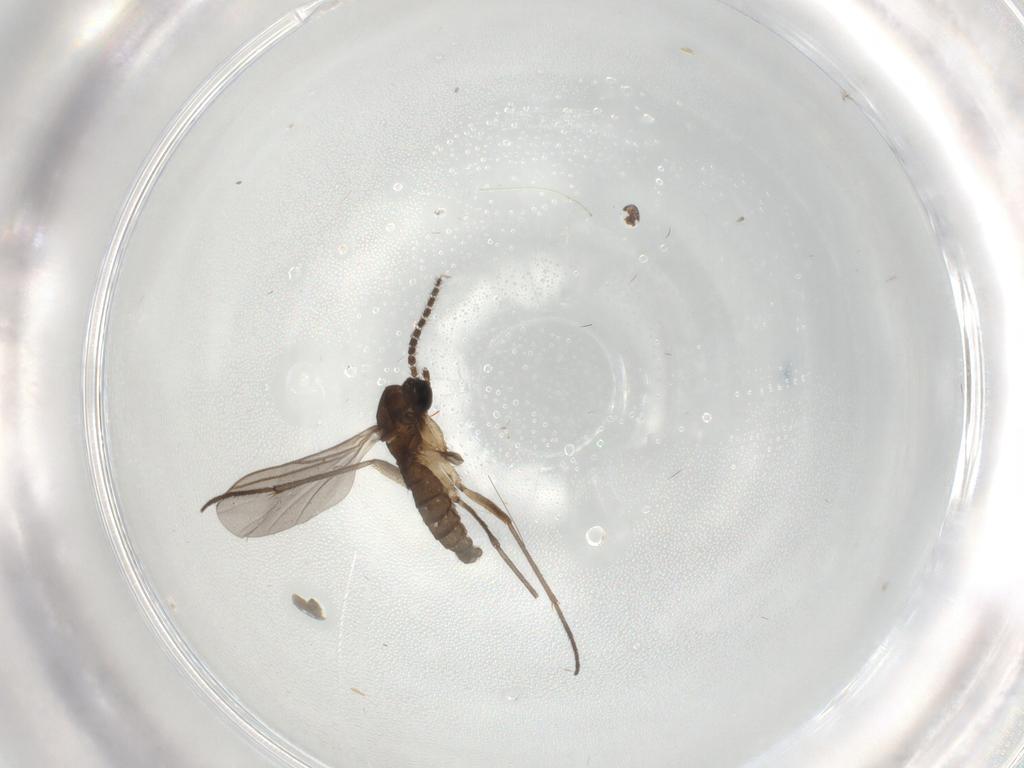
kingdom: Animalia
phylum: Arthropoda
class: Insecta
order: Diptera
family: Sciaridae
